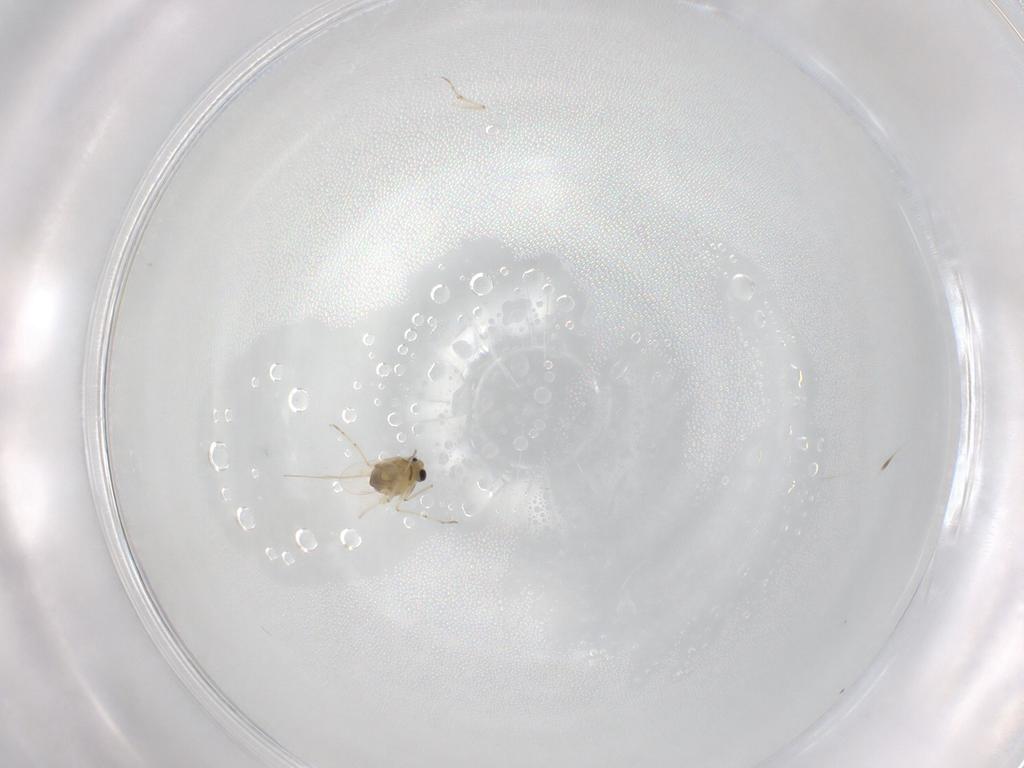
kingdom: Animalia
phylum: Arthropoda
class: Insecta
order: Diptera
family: Chironomidae
